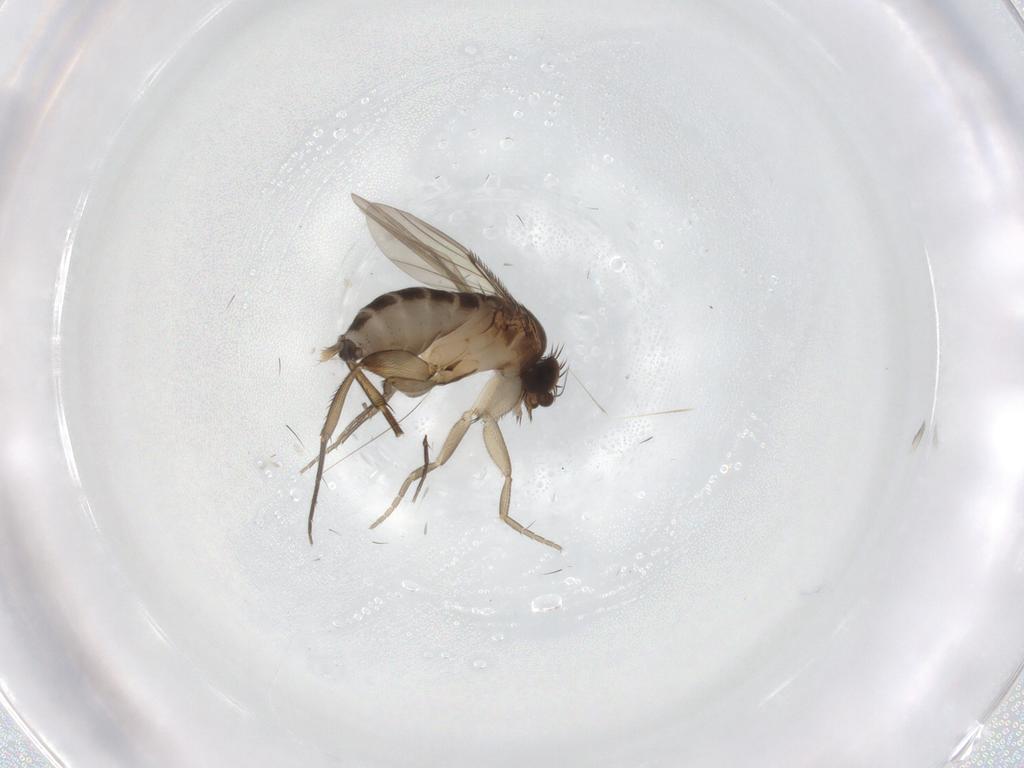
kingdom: Animalia
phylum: Arthropoda
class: Insecta
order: Diptera
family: Phoridae
